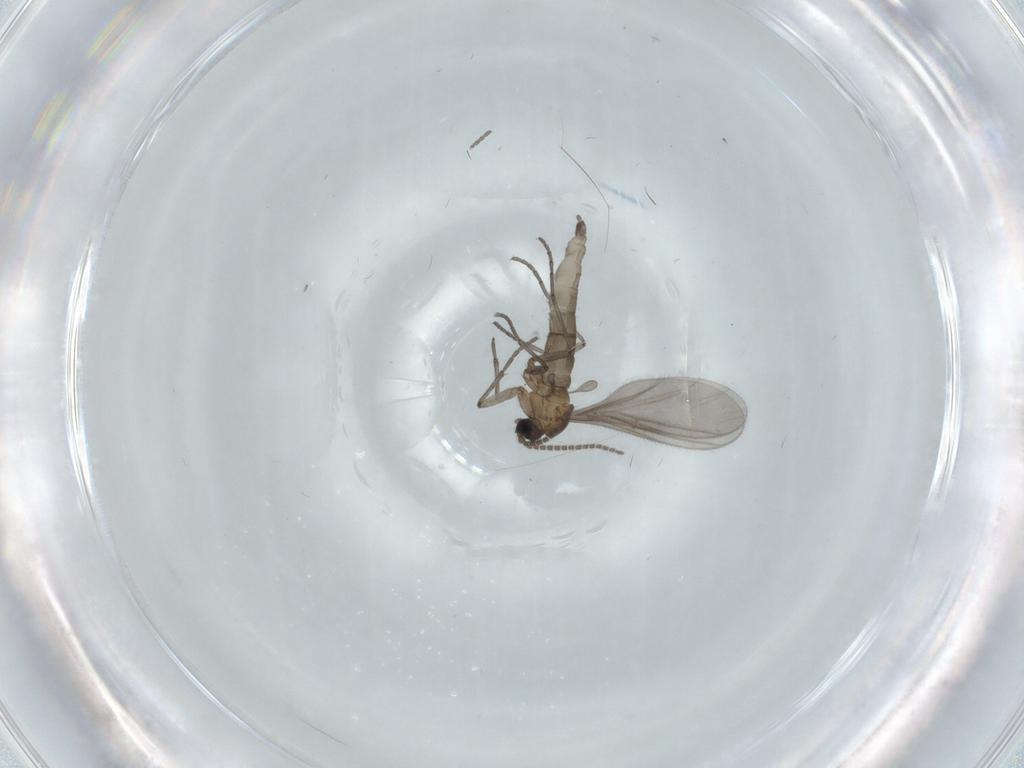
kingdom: Animalia
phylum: Arthropoda
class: Insecta
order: Diptera
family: Sciaridae
